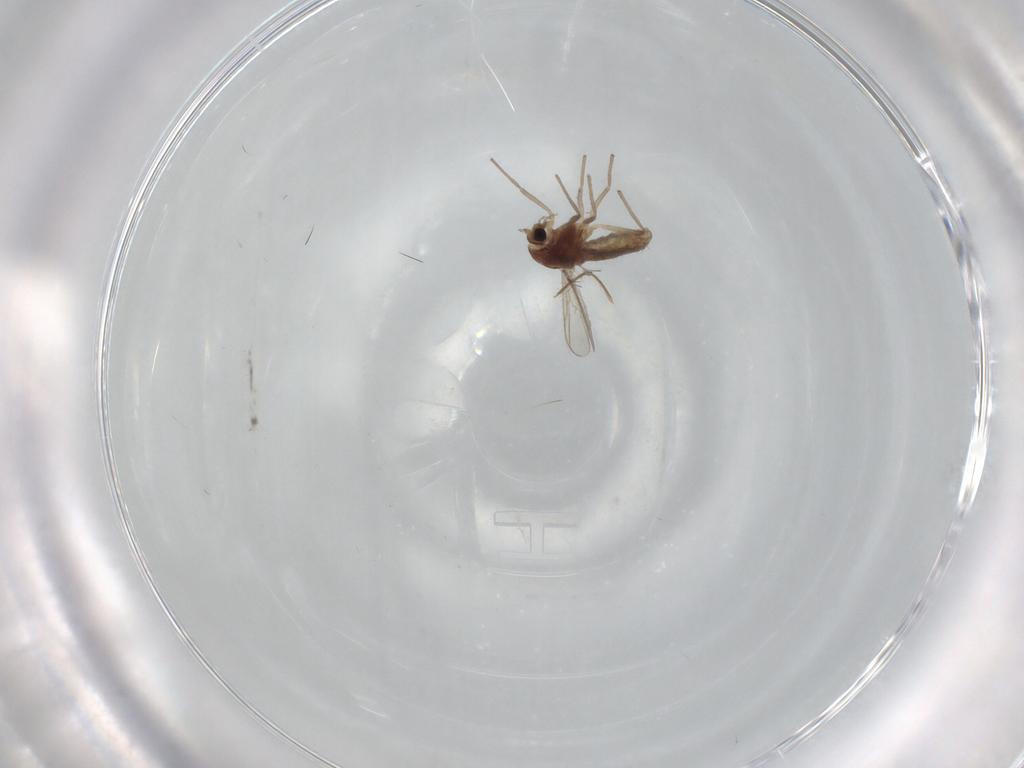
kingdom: Animalia
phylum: Arthropoda
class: Insecta
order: Diptera
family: Chironomidae
